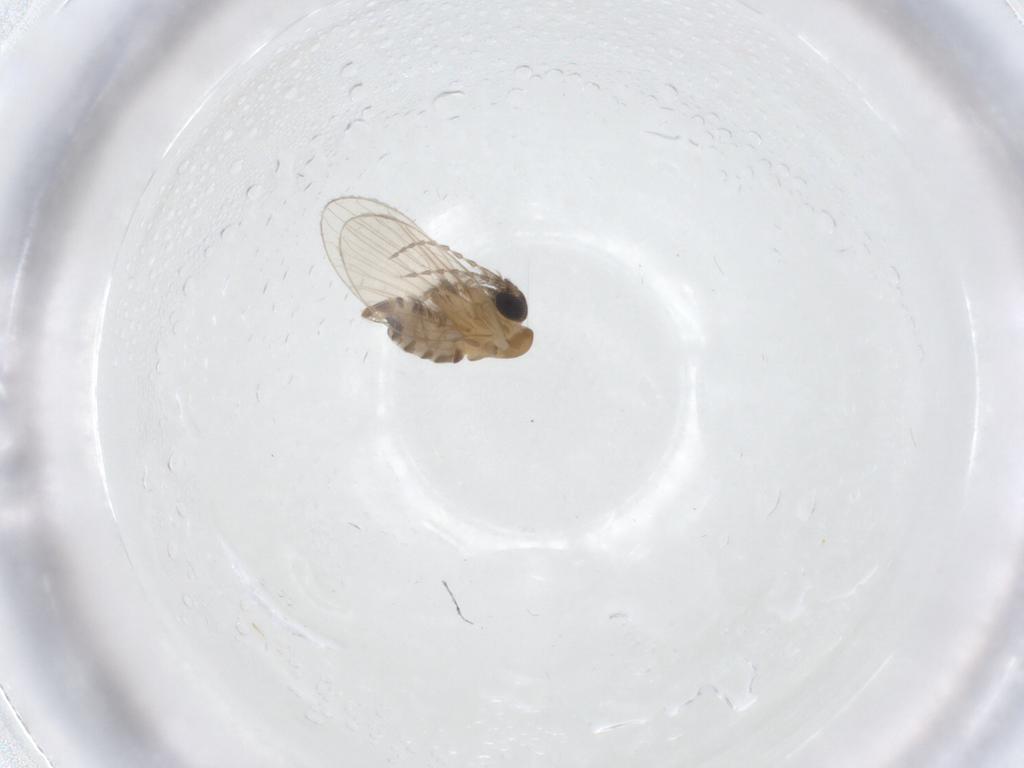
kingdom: Animalia
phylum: Arthropoda
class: Insecta
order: Diptera
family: Psychodidae
